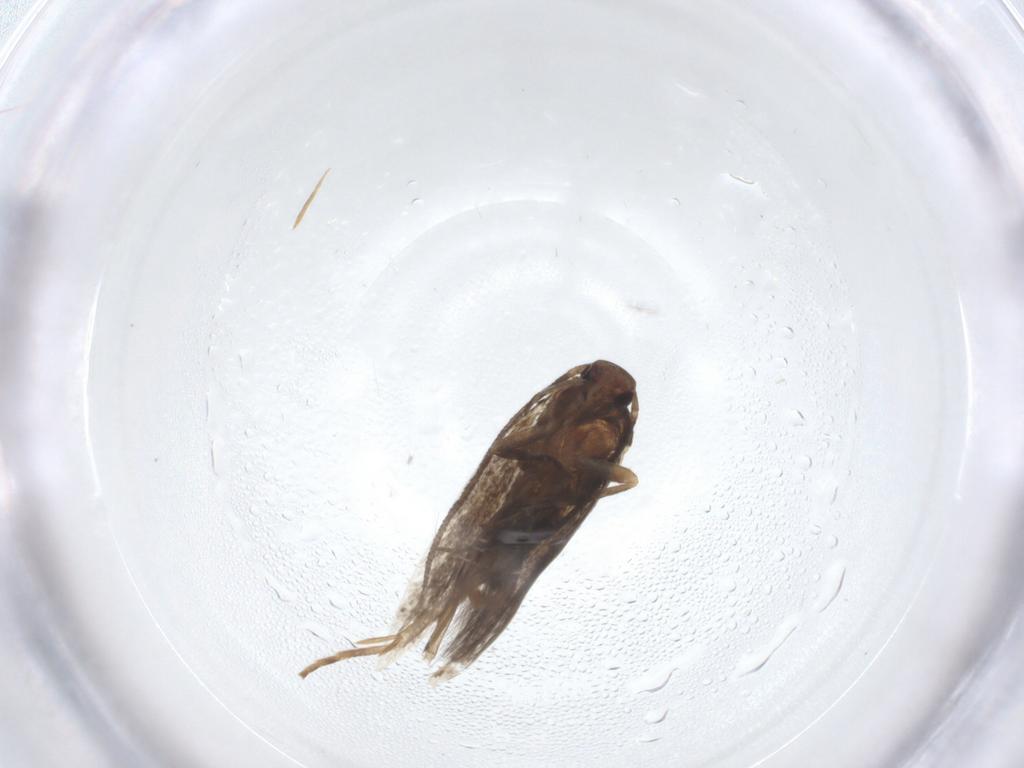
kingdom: Animalia
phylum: Arthropoda
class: Insecta
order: Lepidoptera
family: Elachistidae
